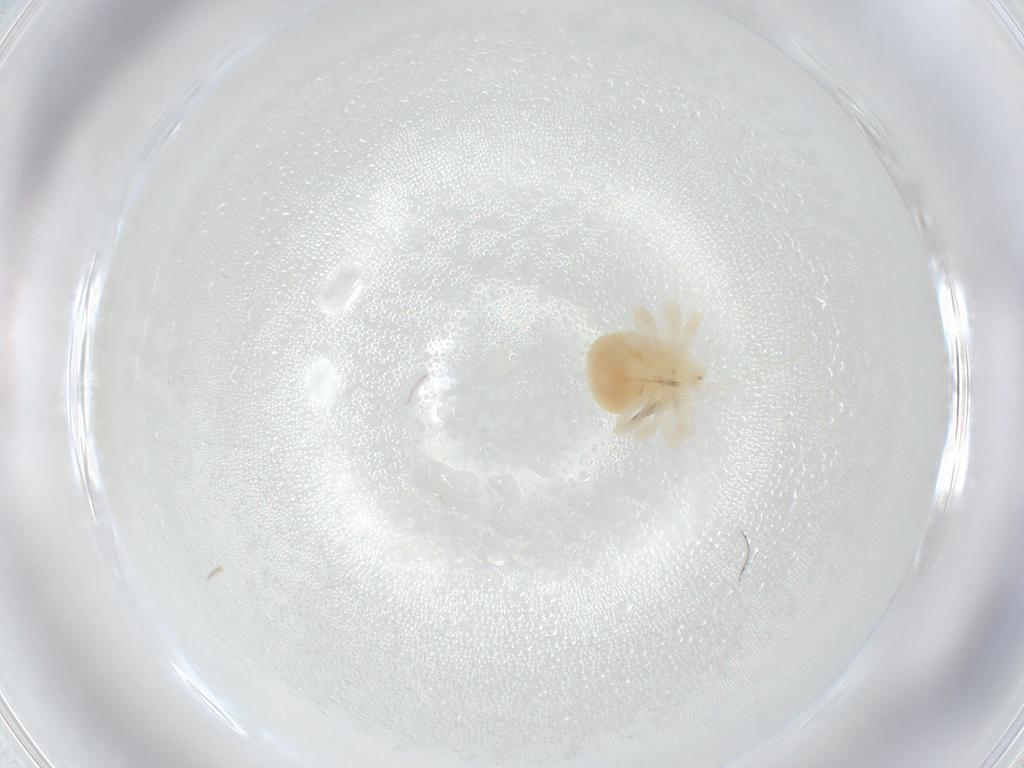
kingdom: Animalia
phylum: Arthropoda
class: Arachnida
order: Trombidiformes
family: Anystidae
